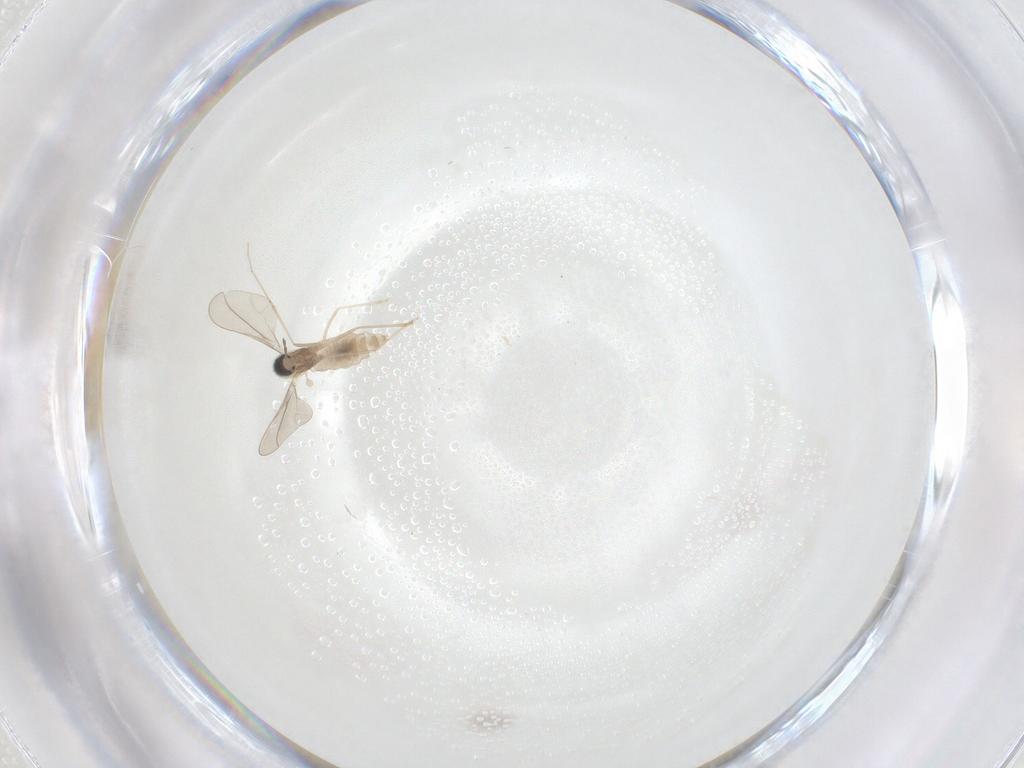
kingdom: Animalia
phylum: Arthropoda
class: Insecta
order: Diptera
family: Cecidomyiidae
